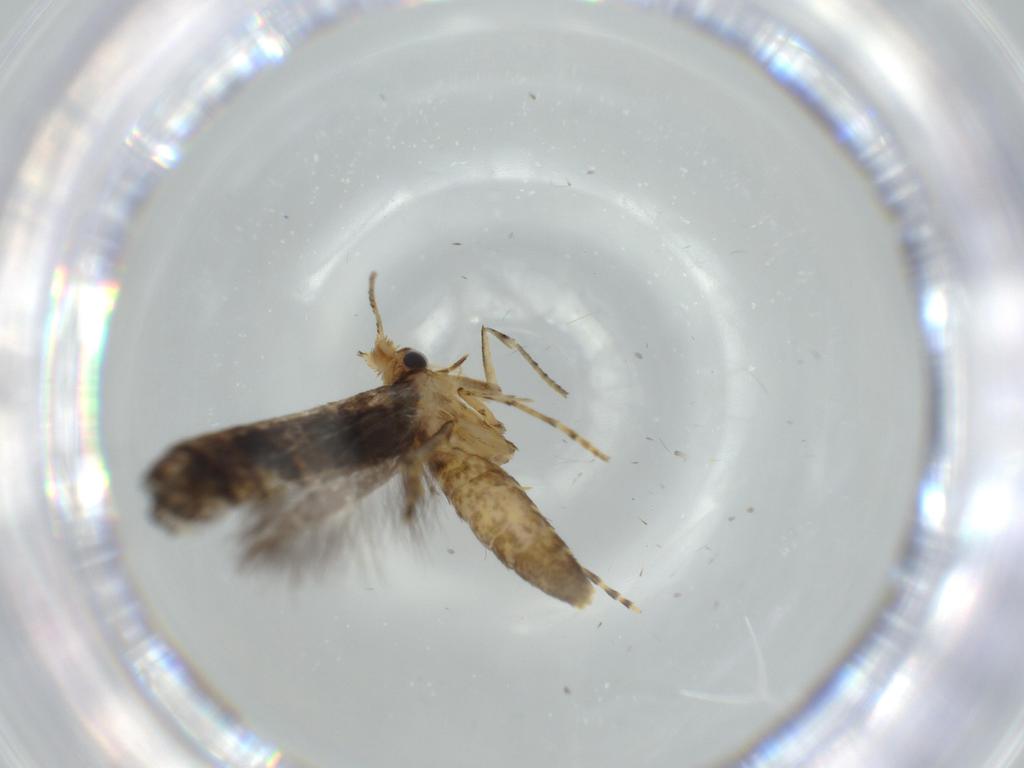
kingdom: Animalia
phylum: Arthropoda
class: Insecta
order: Lepidoptera
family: Argyresthiidae
